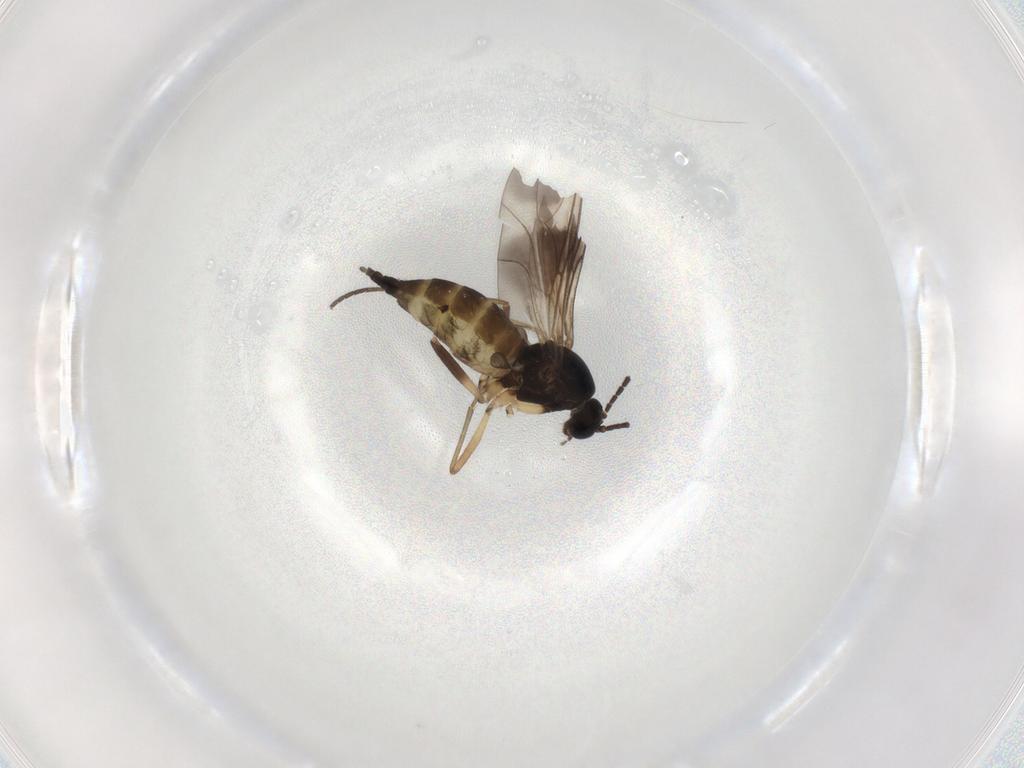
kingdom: Animalia
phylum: Arthropoda
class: Insecta
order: Diptera
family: Sciaridae
